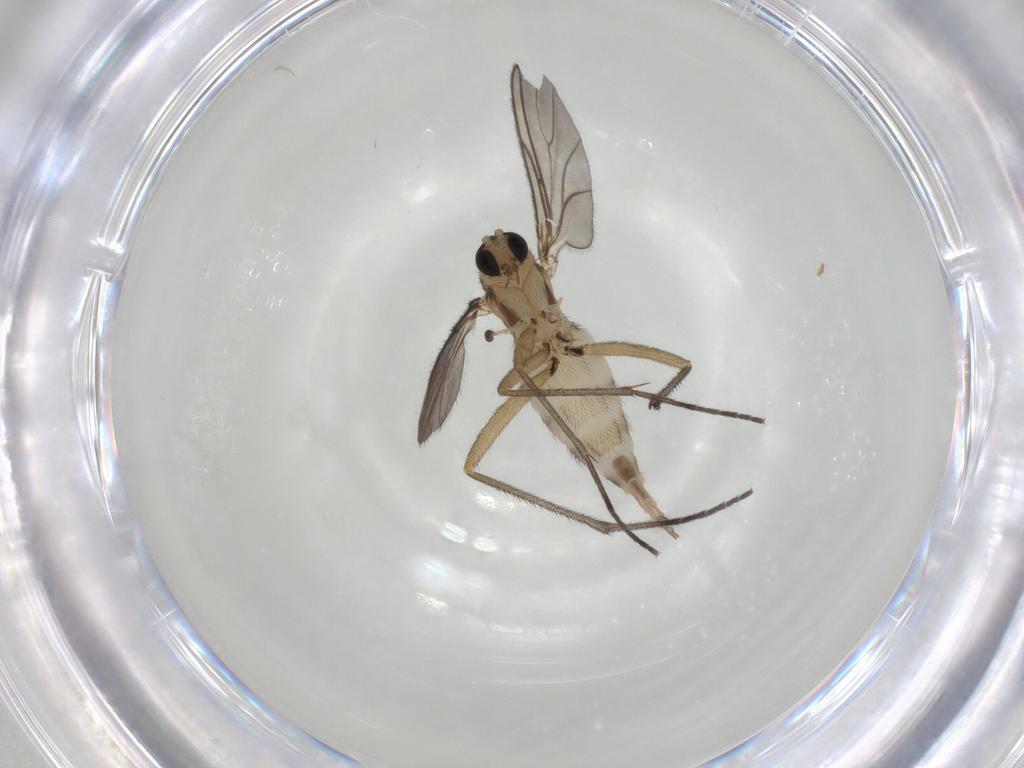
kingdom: Animalia
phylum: Arthropoda
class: Insecta
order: Diptera
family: Sciaridae
